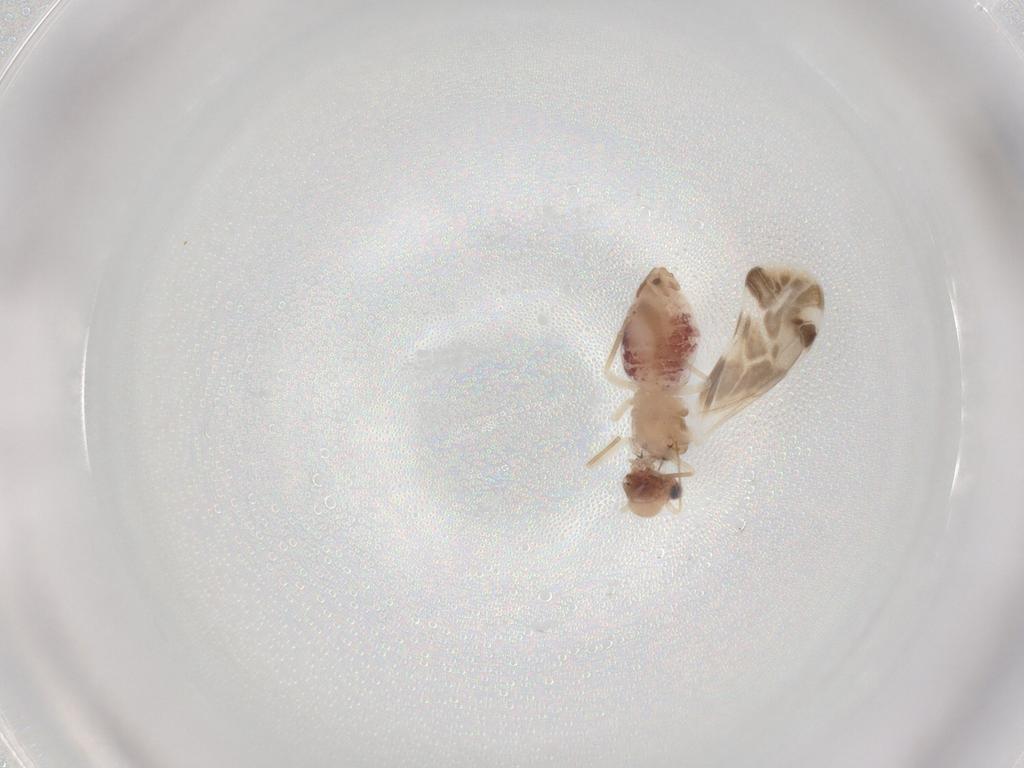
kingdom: Animalia
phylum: Arthropoda
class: Insecta
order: Psocodea
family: Caeciliusidae
